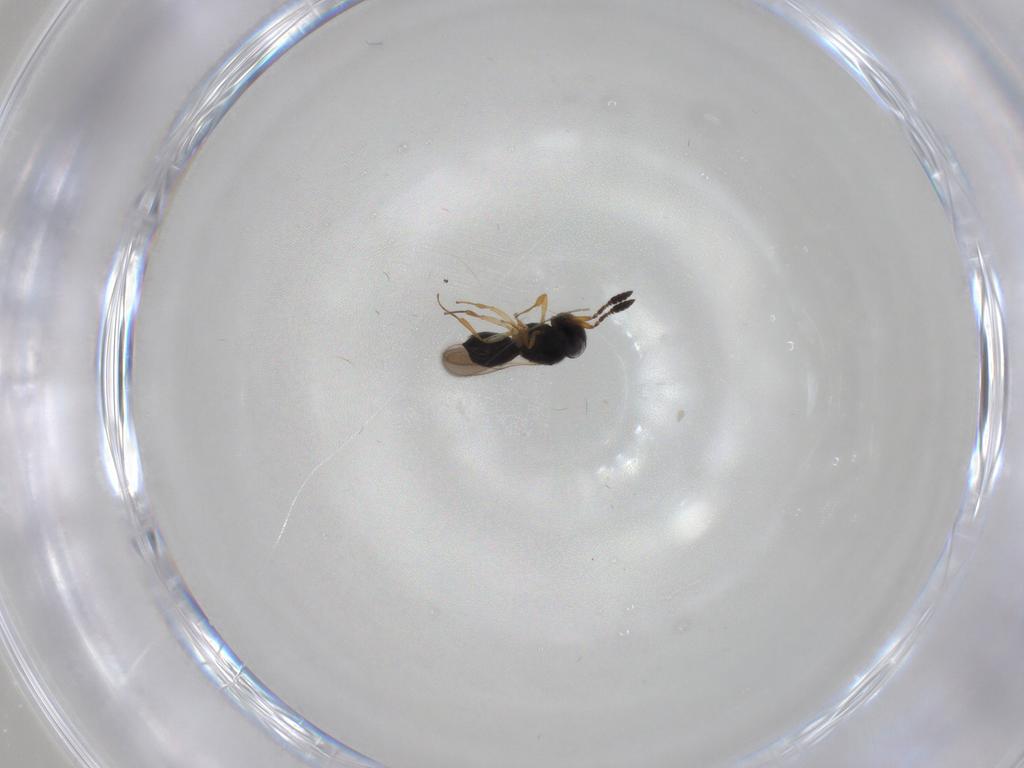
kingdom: Animalia
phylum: Arthropoda
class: Insecta
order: Hymenoptera
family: Scelionidae
